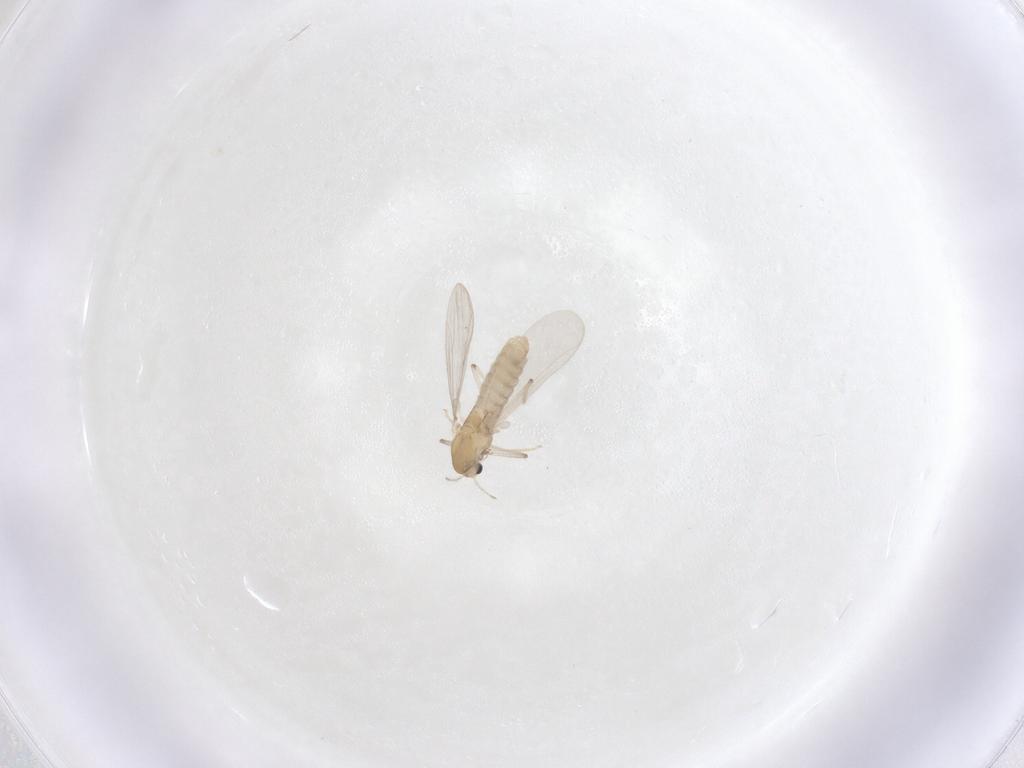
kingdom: Animalia
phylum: Arthropoda
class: Insecta
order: Diptera
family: Chironomidae
